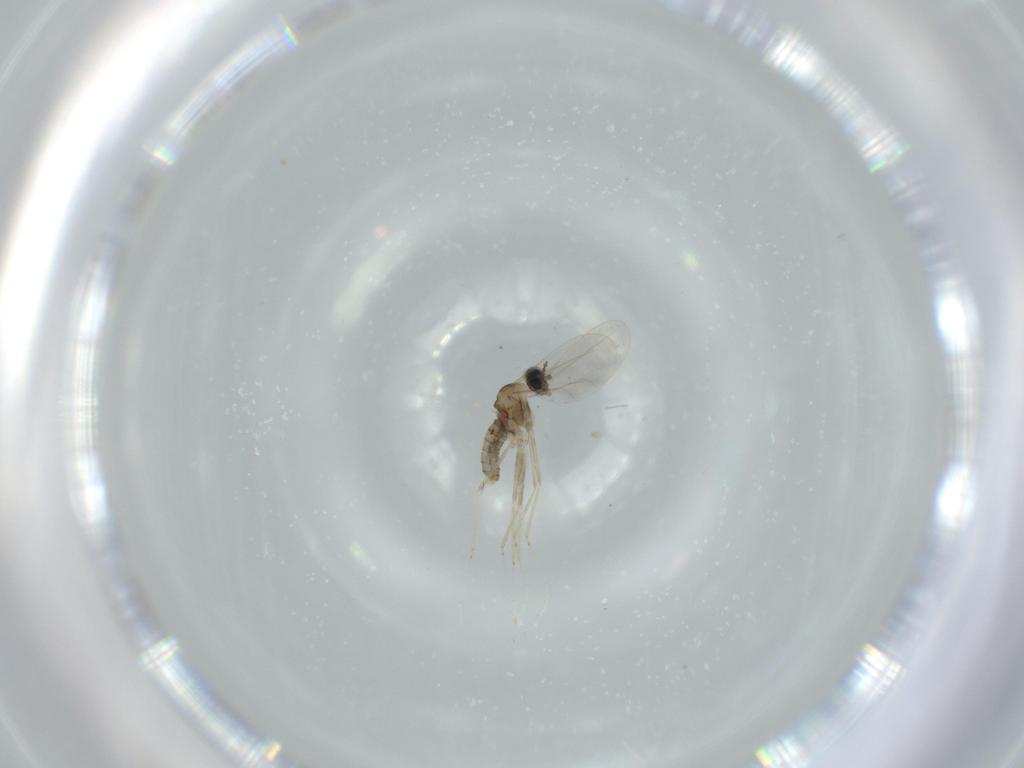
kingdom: Animalia
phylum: Arthropoda
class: Insecta
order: Diptera
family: Cecidomyiidae
